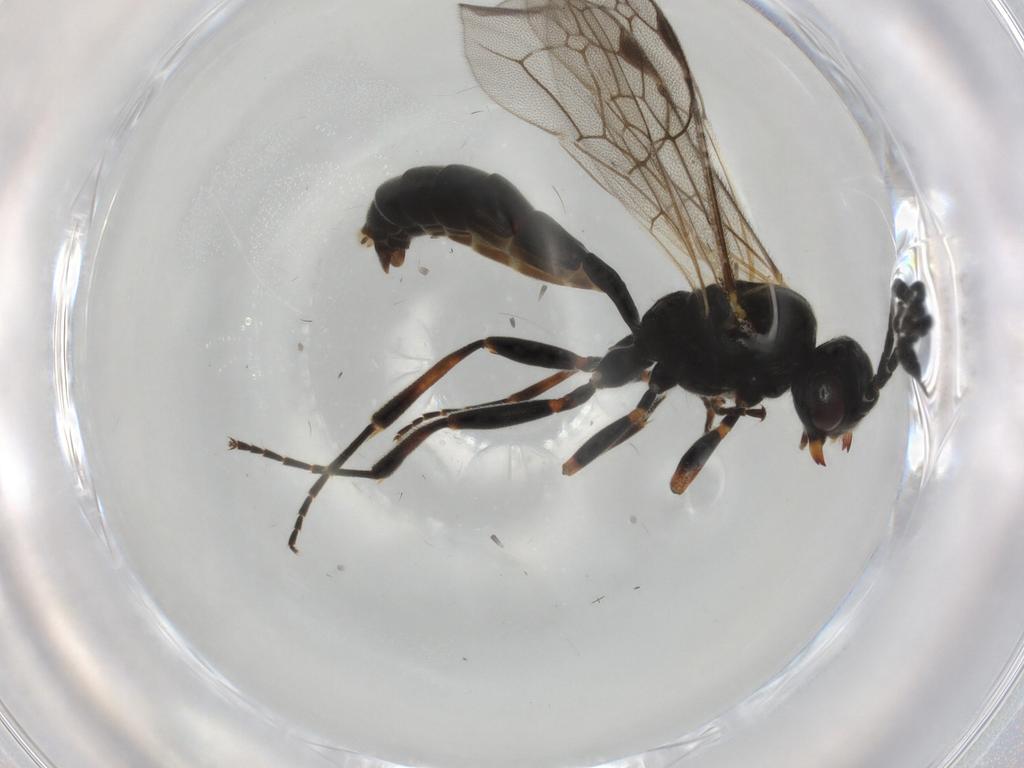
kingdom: Animalia
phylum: Arthropoda
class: Insecta
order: Hymenoptera
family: Ichneumonidae
